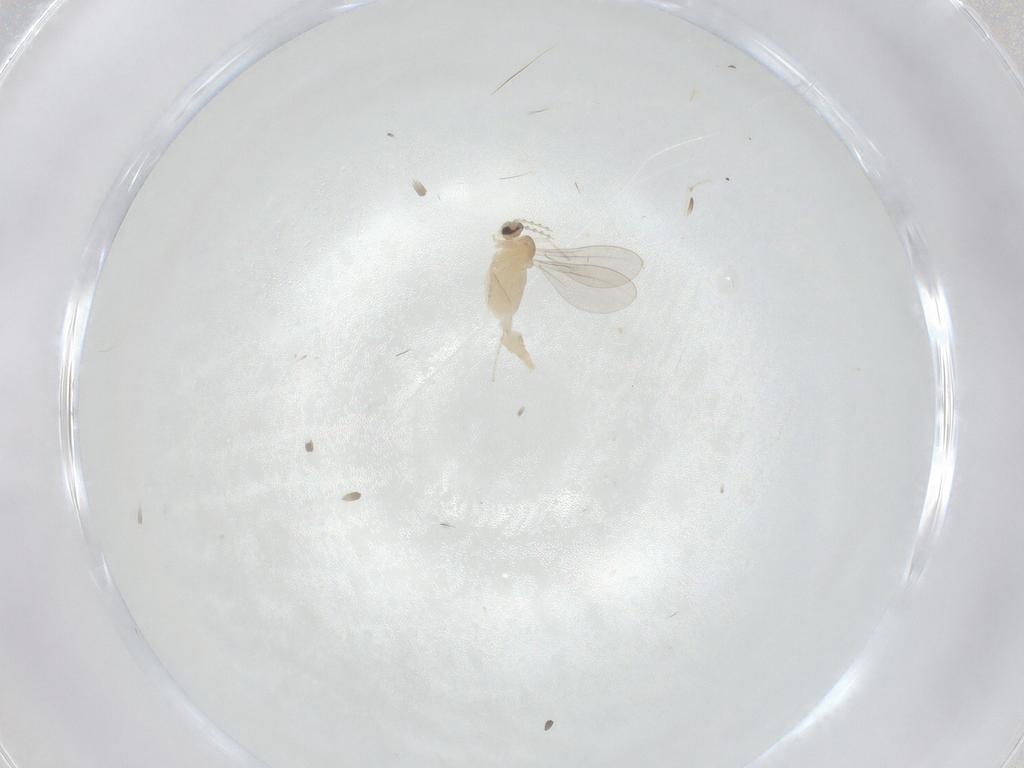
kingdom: Animalia
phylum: Arthropoda
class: Insecta
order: Diptera
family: Cecidomyiidae
